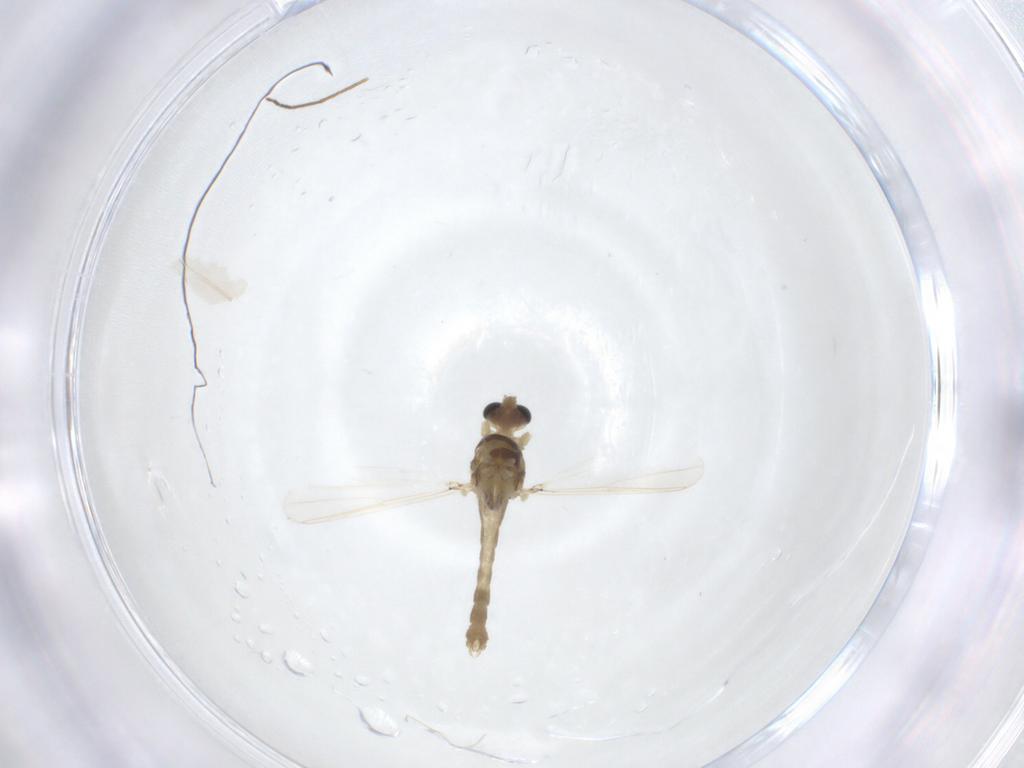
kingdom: Animalia
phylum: Arthropoda
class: Insecta
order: Diptera
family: Chironomidae
